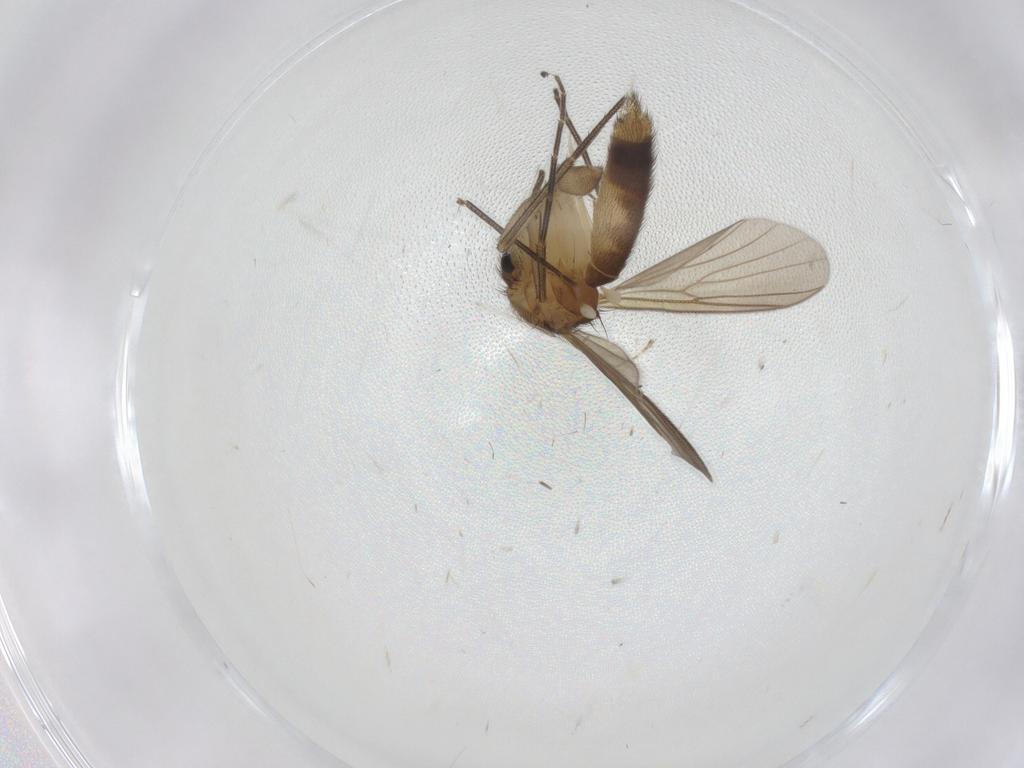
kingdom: Animalia
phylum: Arthropoda
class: Insecta
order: Diptera
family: Mycetophilidae
